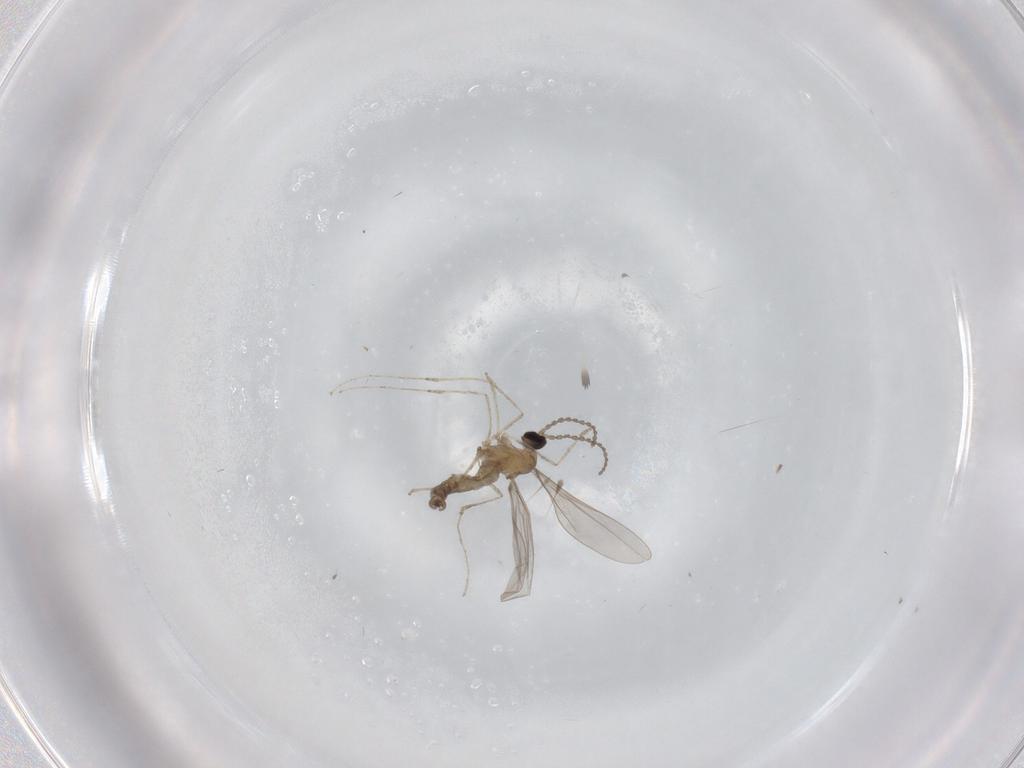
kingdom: Animalia
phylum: Arthropoda
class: Insecta
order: Diptera
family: Cecidomyiidae
